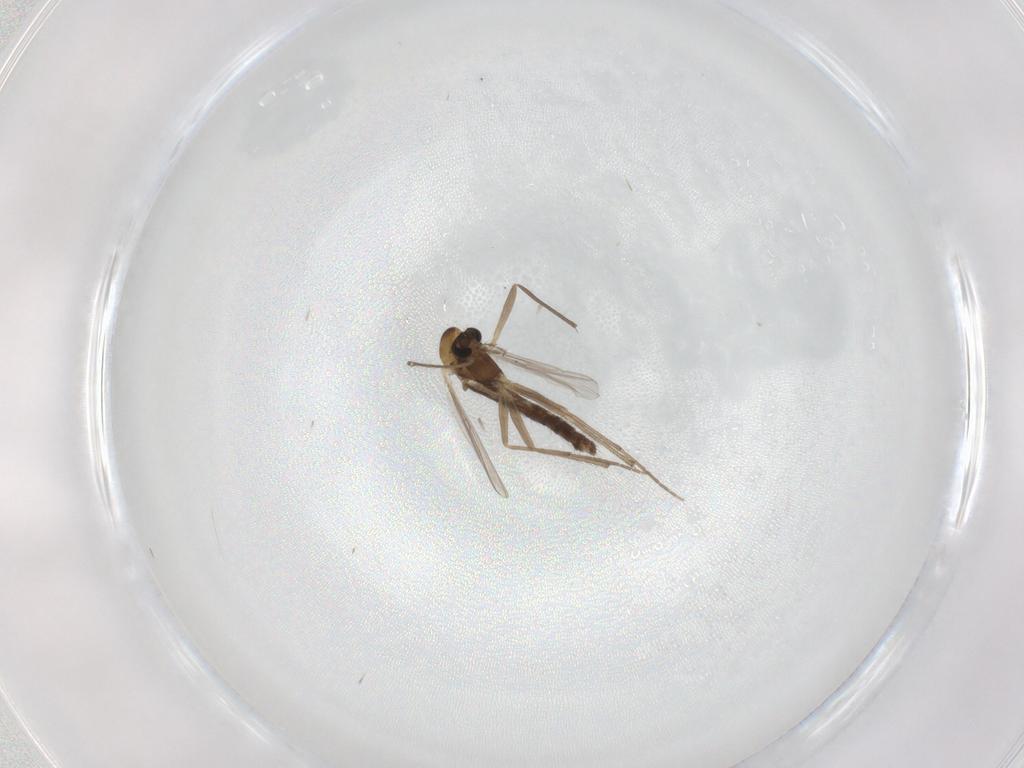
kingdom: Animalia
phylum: Arthropoda
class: Insecta
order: Diptera
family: Chironomidae
